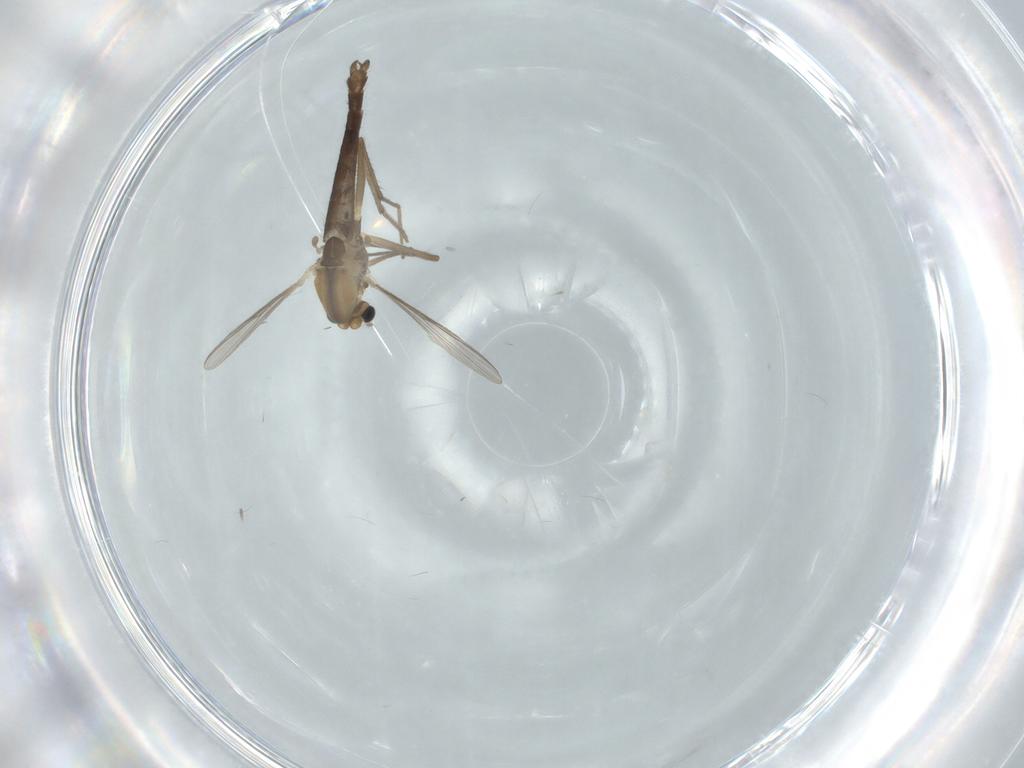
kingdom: Animalia
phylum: Arthropoda
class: Insecta
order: Diptera
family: Chironomidae
